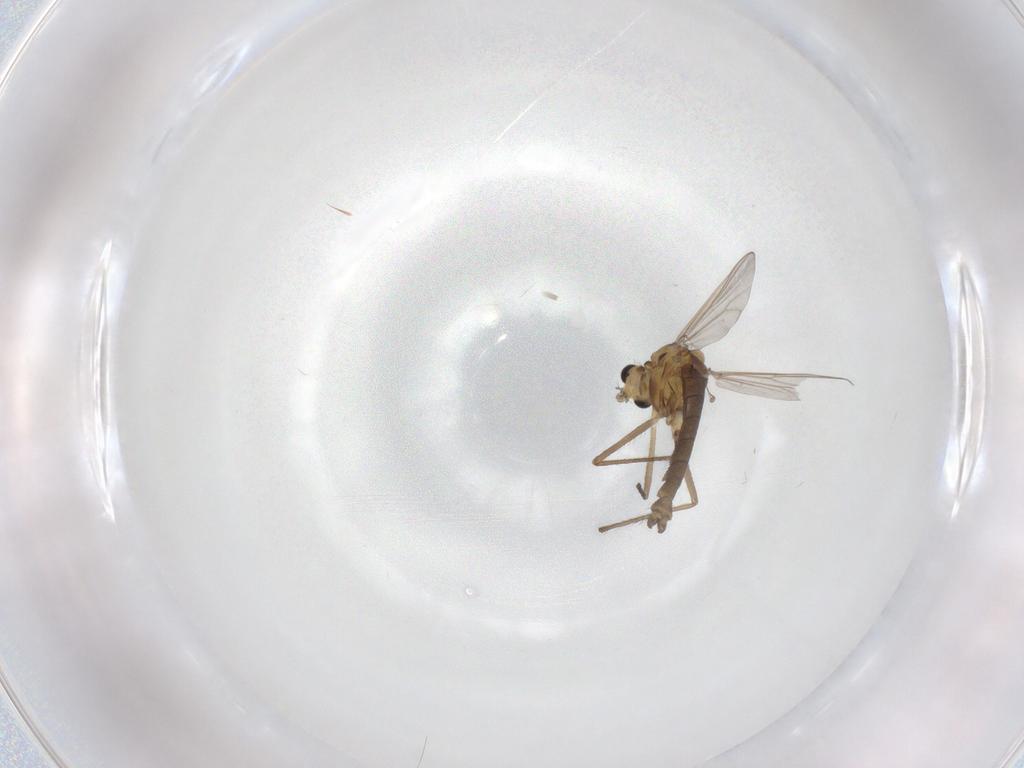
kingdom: Animalia
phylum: Arthropoda
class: Insecta
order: Diptera
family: Chironomidae
